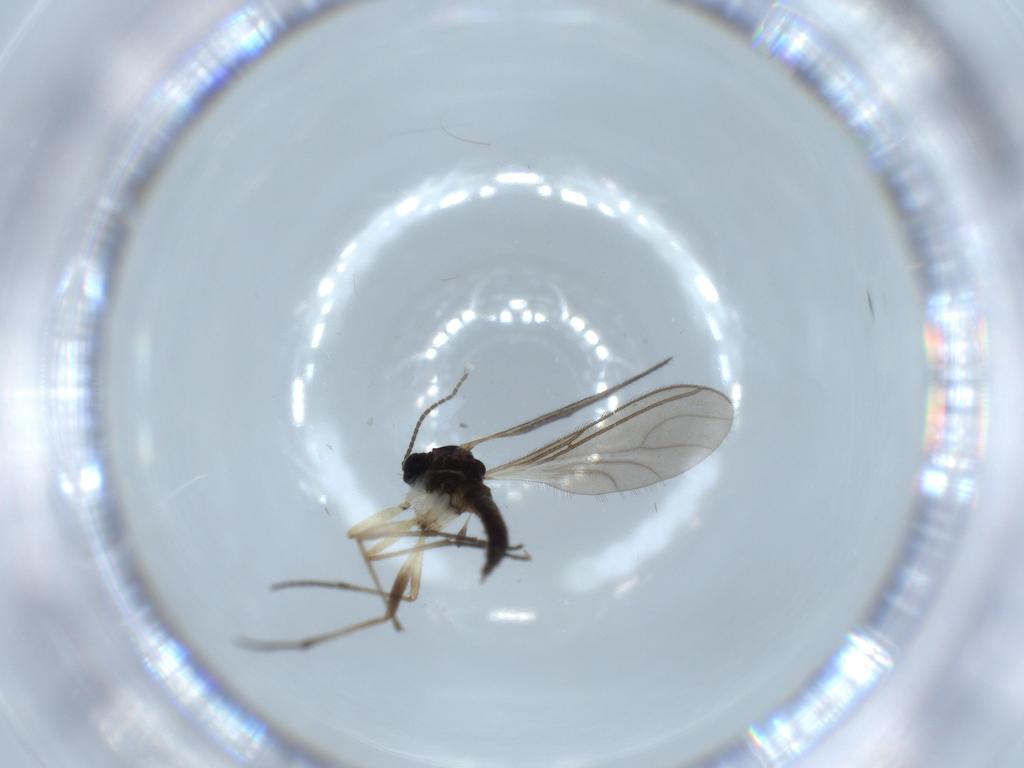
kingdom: Animalia
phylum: Arthropoda
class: Insecta
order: Diptera
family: Sciaridae
